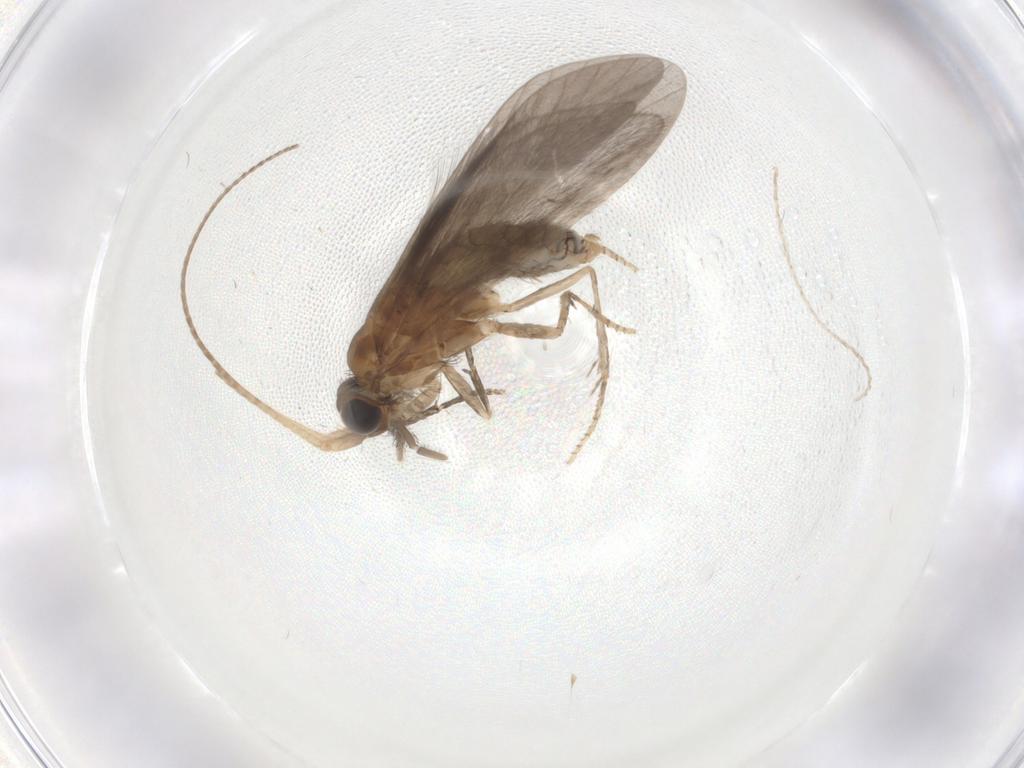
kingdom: Animalia
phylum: Arthropoda
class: Insecta
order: Trichoptera
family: Helicopsychidae
